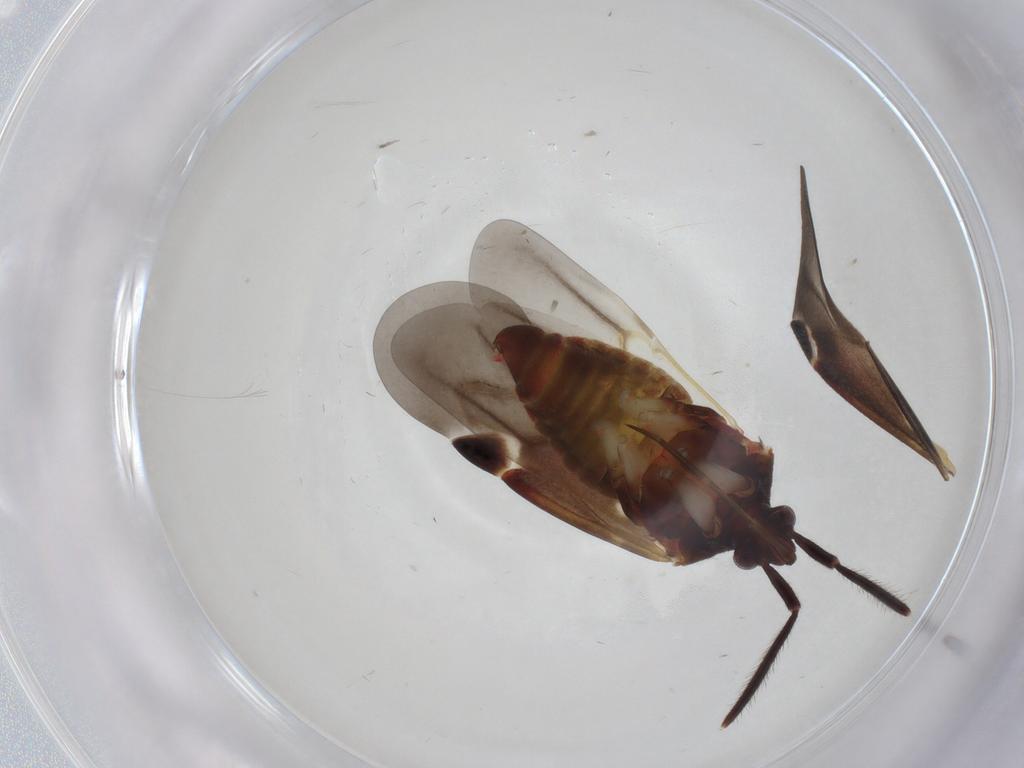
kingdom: Animalia
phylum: Arthropoda
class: Insecta
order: Hemiptera
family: Miridae
